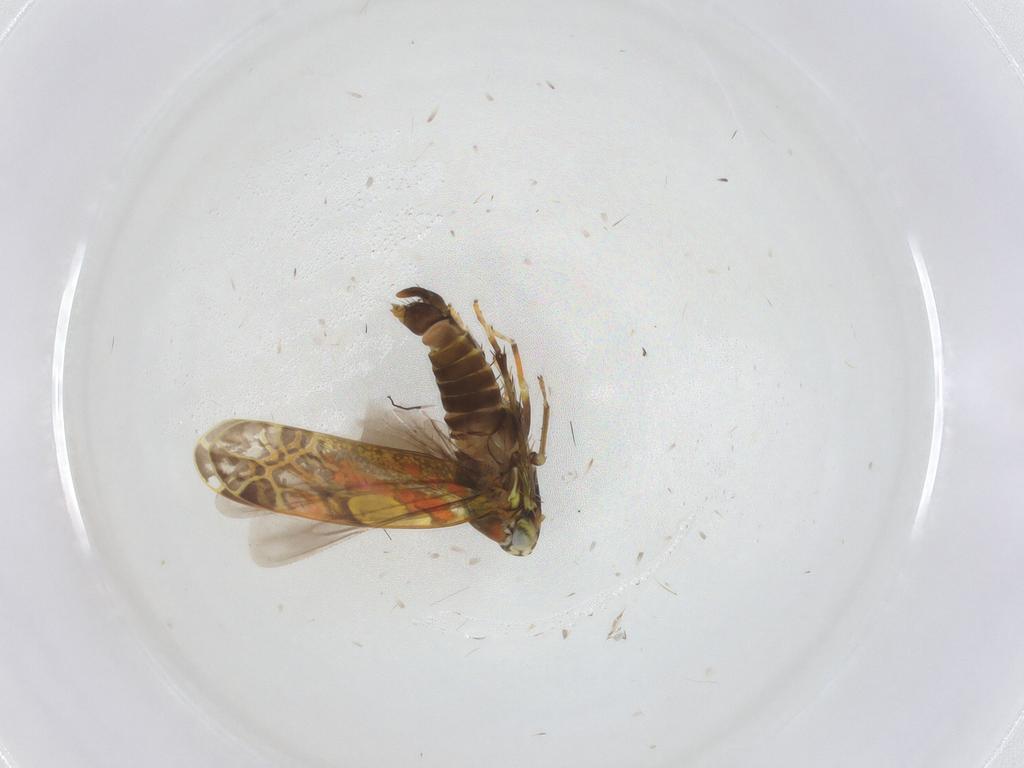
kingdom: Animalia
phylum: Arthropoda
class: Insecta
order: Hemiptera
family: Cicadellidae
